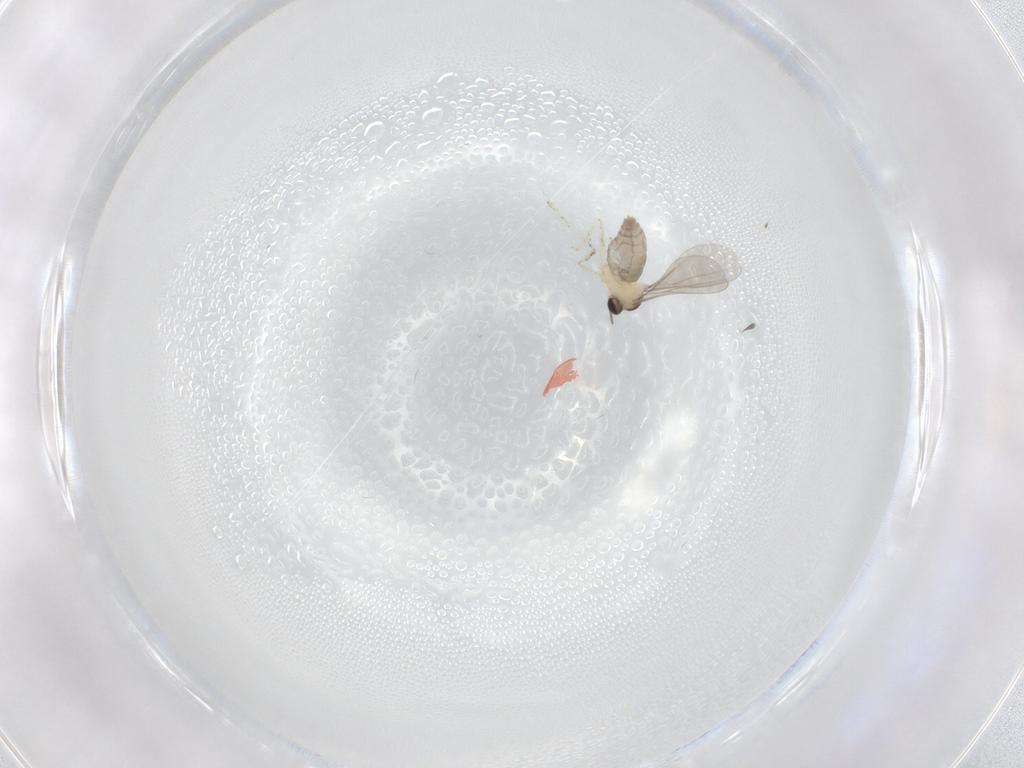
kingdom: Animalia
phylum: Arthropoda
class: Insecta
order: Diptera
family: Cecidomyiidae
